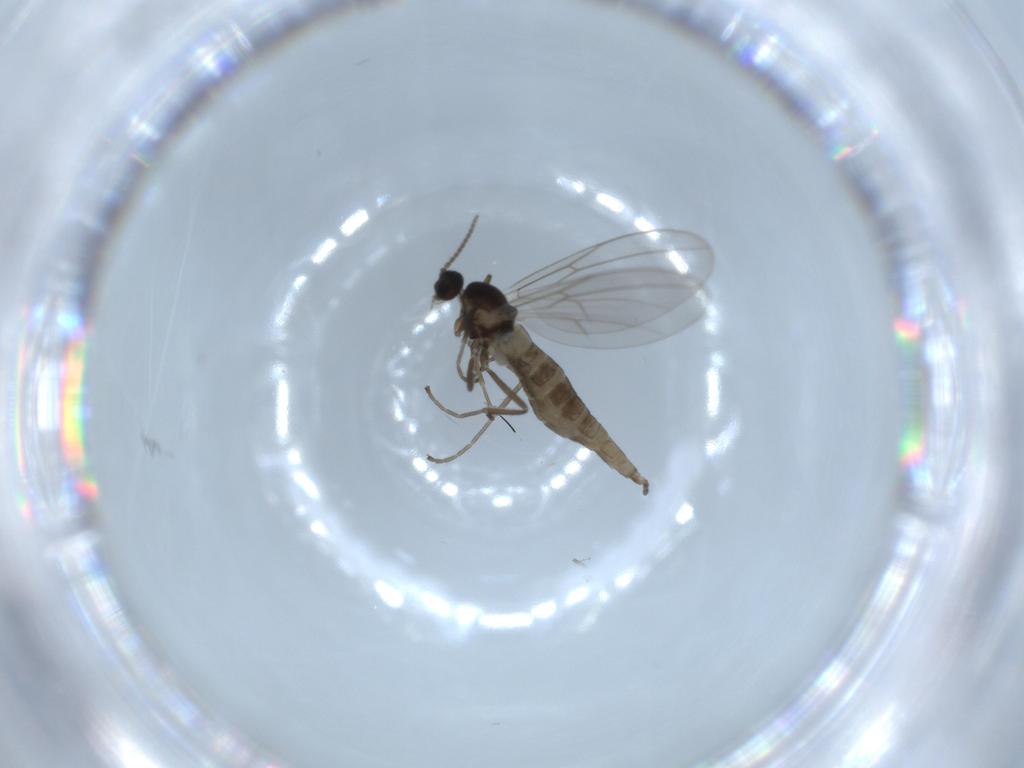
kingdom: Animalia
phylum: Arthropoda
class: Insecta
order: Diptera
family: Cecidomyiidae
